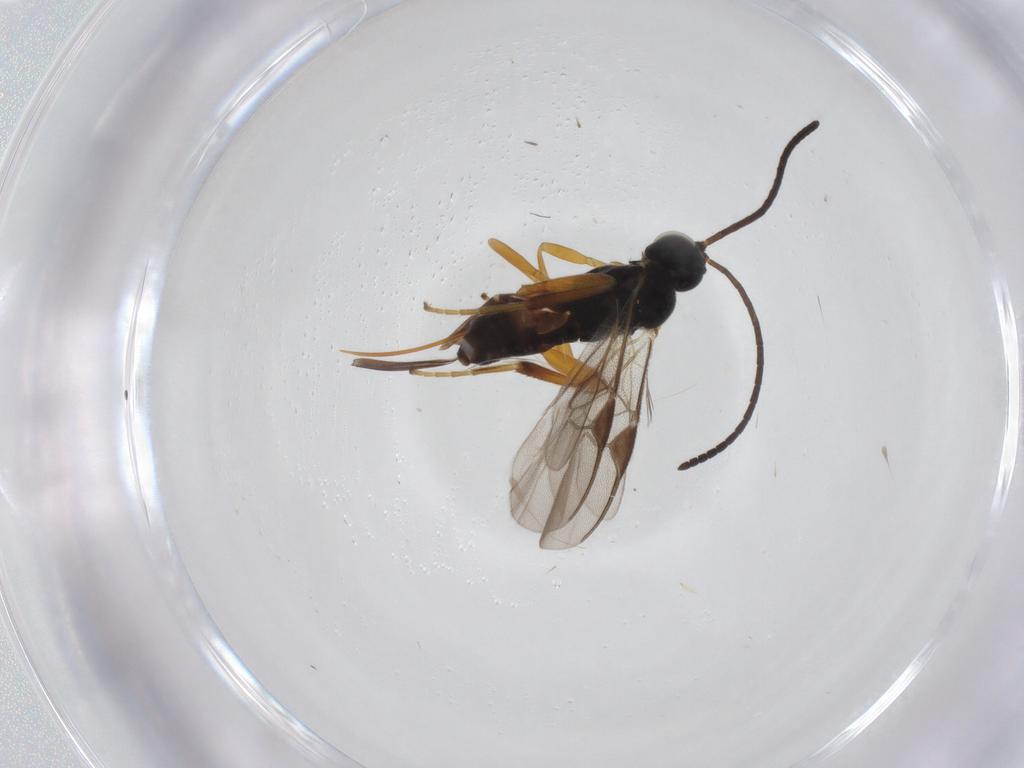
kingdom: Animalia
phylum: Arthropoda
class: Insecta
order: Hymenoptera
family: Braconidae
